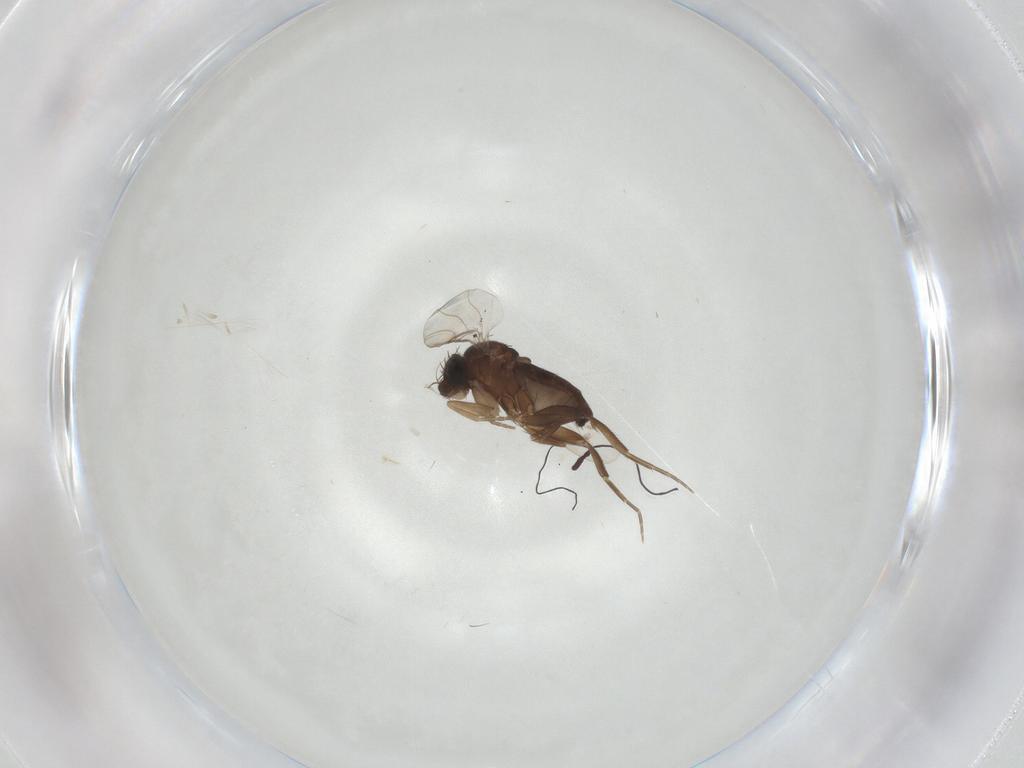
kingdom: Animalia
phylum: Arthropoda
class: Insecta
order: Diptera
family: Phoridae
